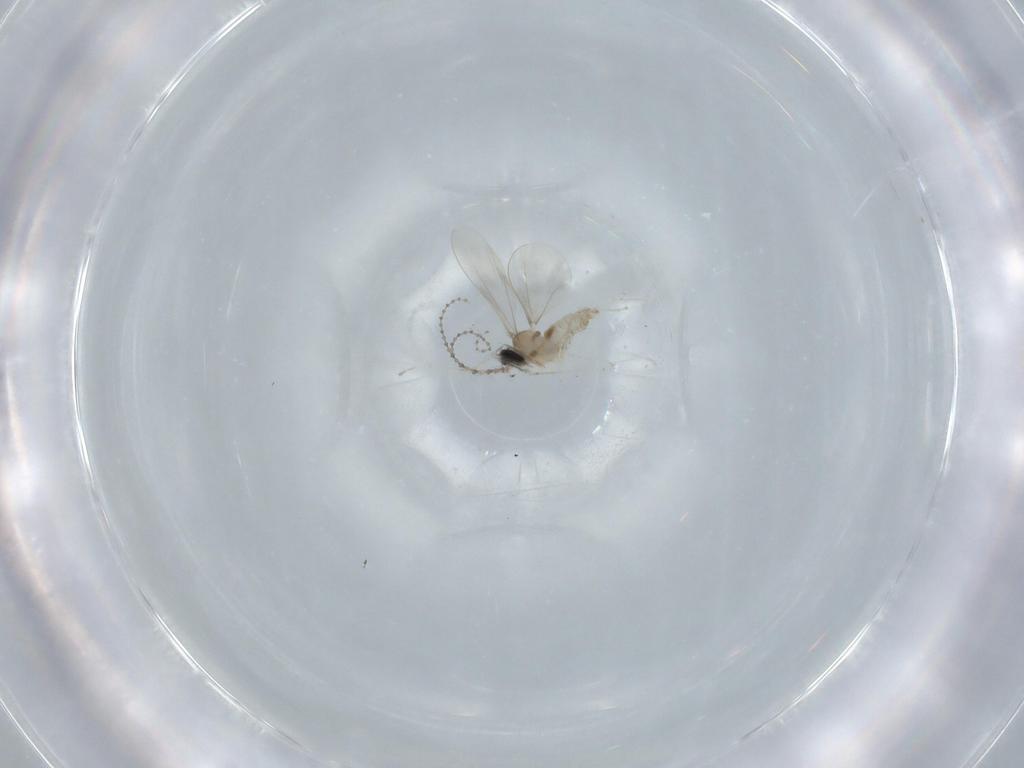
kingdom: Animalia
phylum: Arthropoda
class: Insecta
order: Diptera
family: Cecidomyiidae
